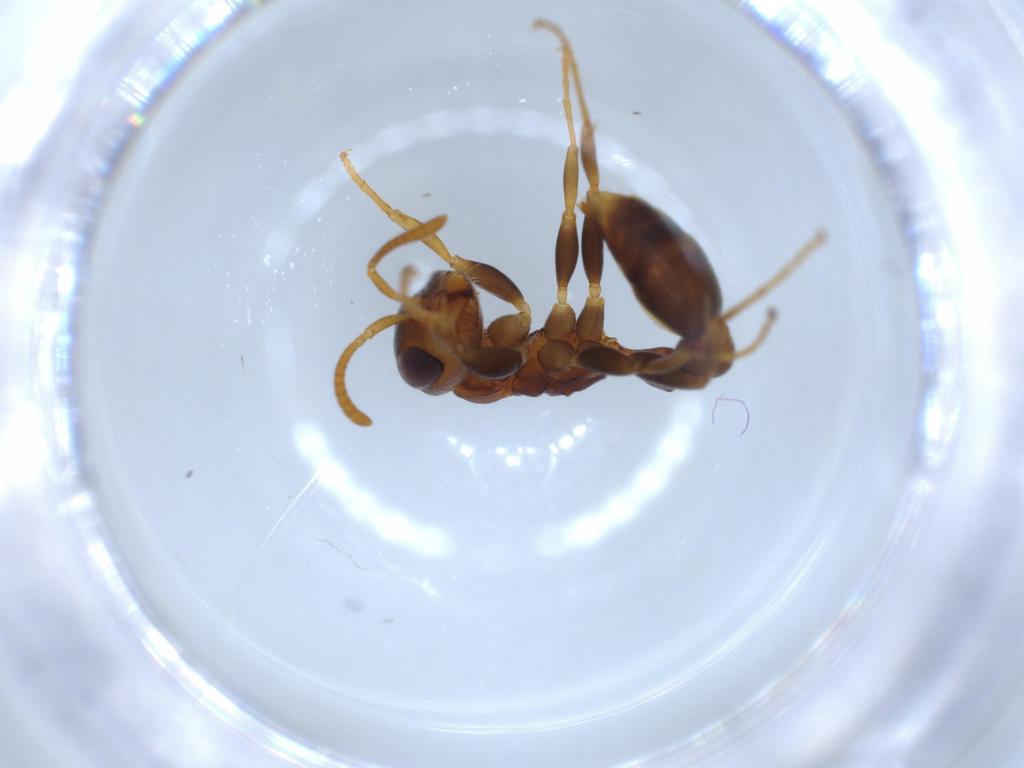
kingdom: Animalia
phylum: Arthropoda
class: Insecta
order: Hymenoptera
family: Formicidae
